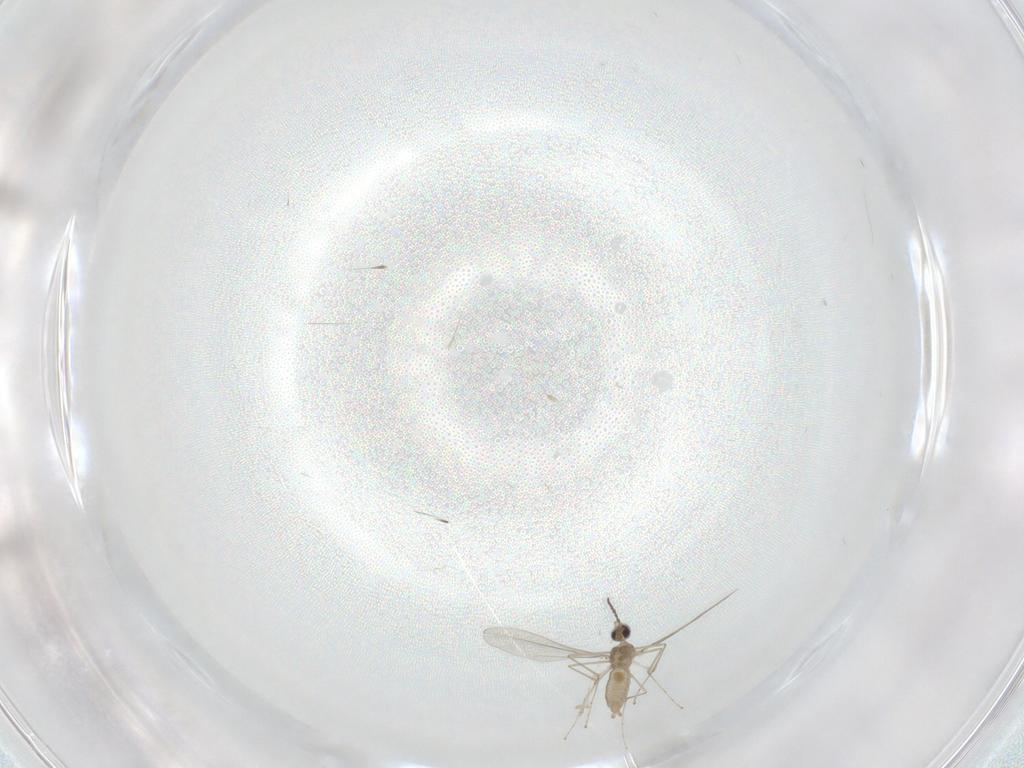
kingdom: Animalia
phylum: Arthropoda
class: Insecta
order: Diptera
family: Cecidomyiidae
